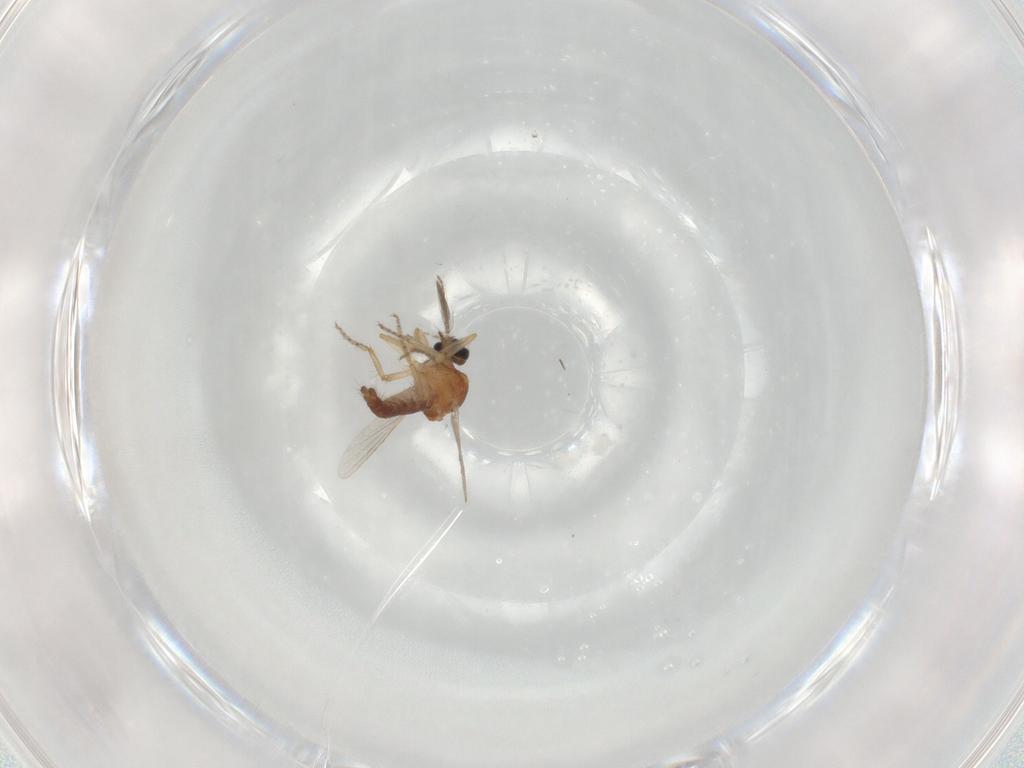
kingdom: Animalia
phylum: Arthropoda
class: Insecta
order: Diptera
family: Ceratopogonidae
